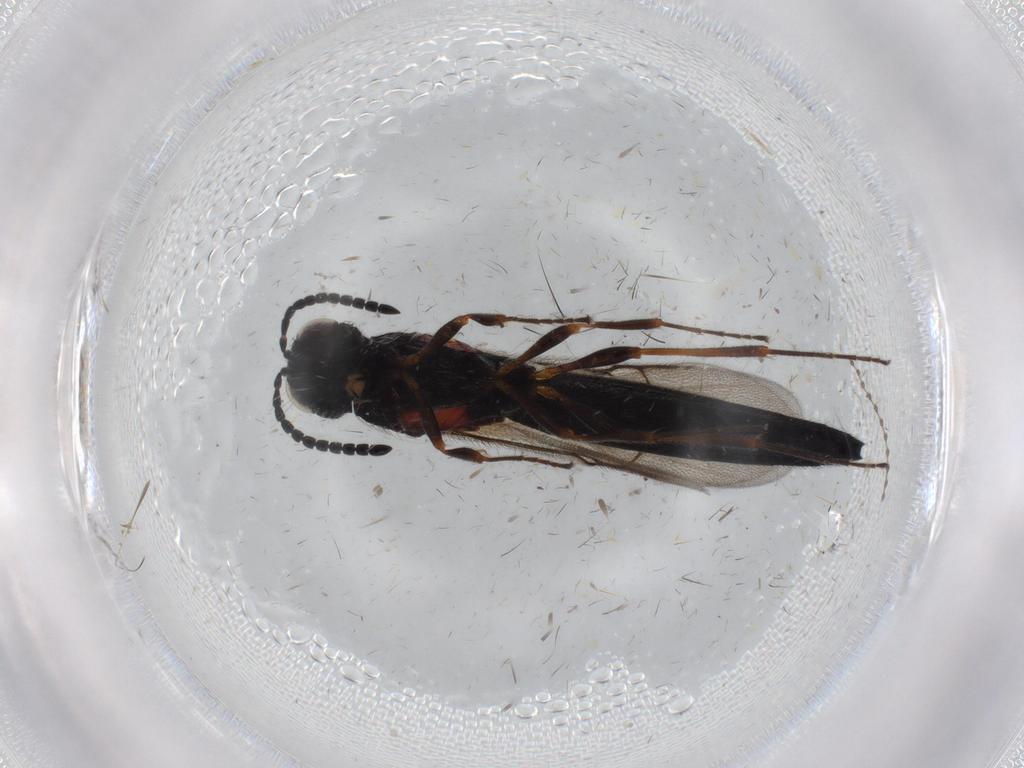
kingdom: Animalia
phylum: Arthropoda
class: Insecta
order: Hymenoptera
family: Scelionidae
